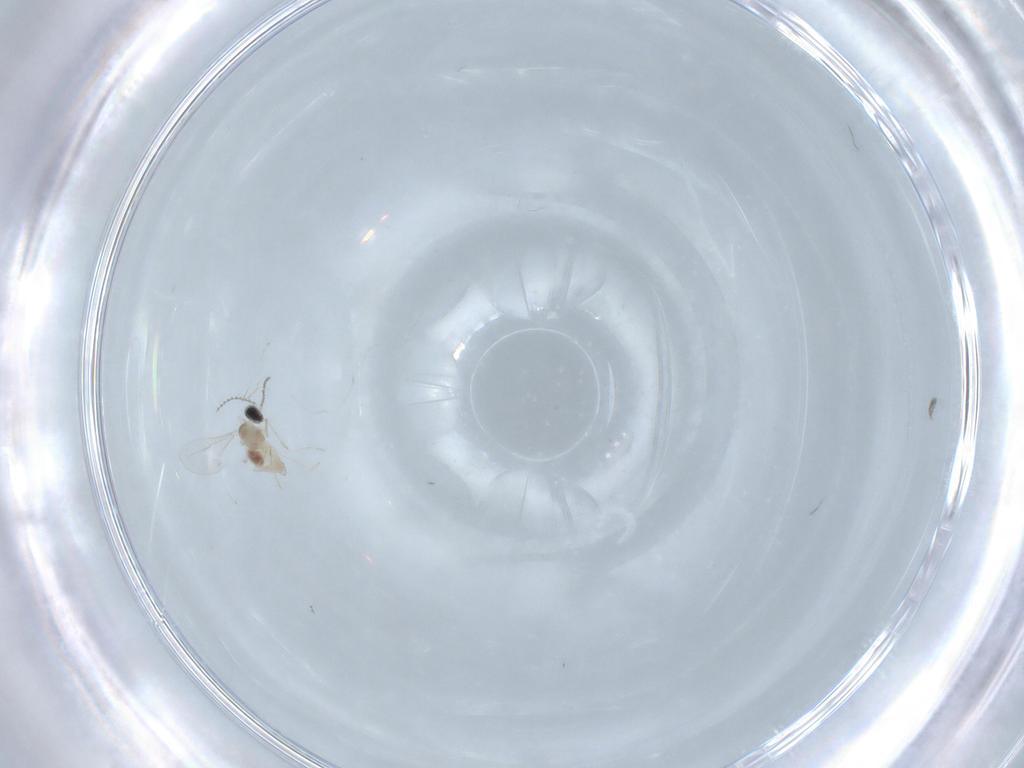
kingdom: Animalia
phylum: Arthropoda
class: Insecta
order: Diptera
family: Cecidomyiidae
